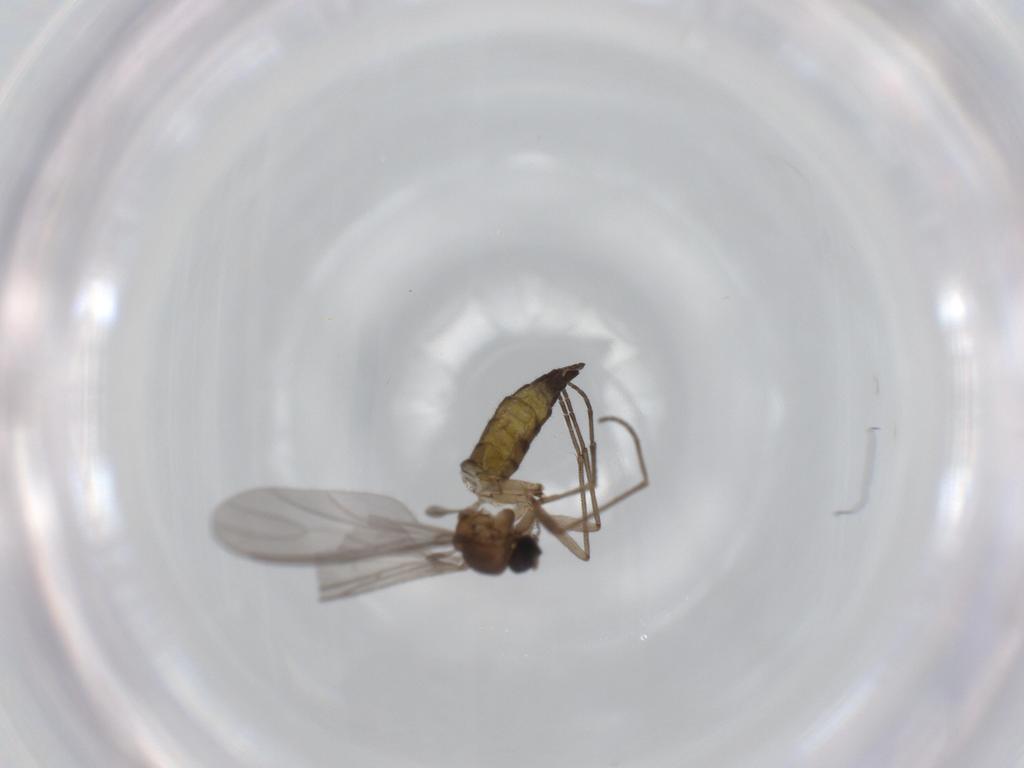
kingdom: Animalia
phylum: Arthropoda
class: Insecta
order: Diptera
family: Sciaridae
